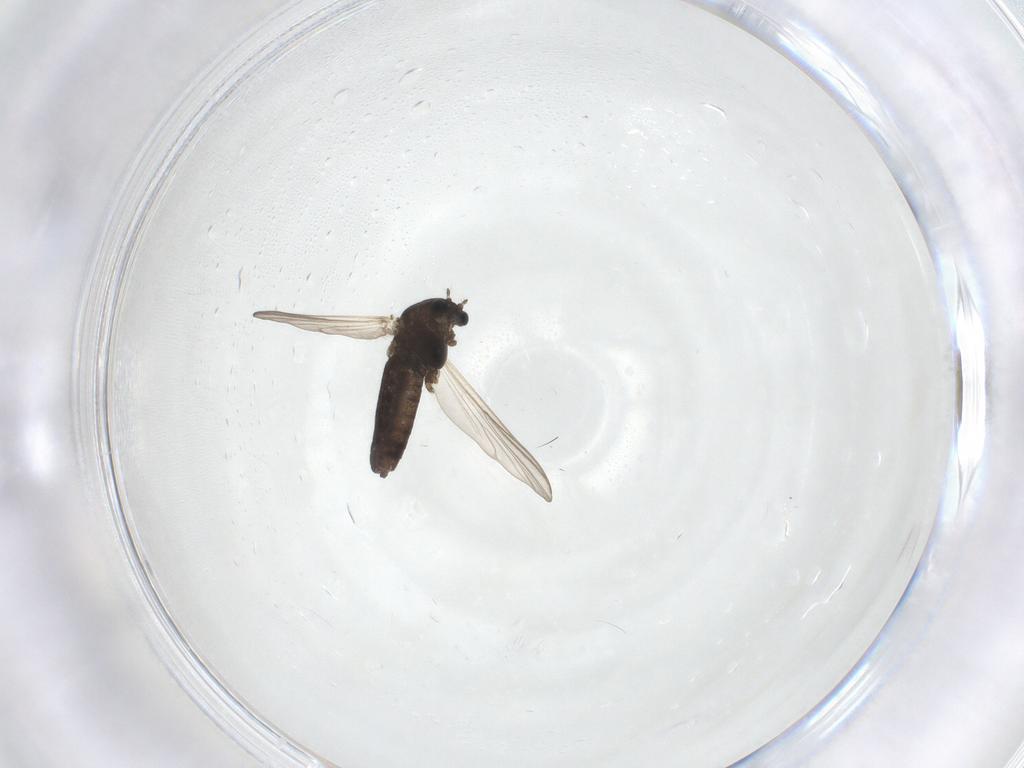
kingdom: Animalia
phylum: Arthropoda
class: Insecta
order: Diptera
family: Chironomidae
